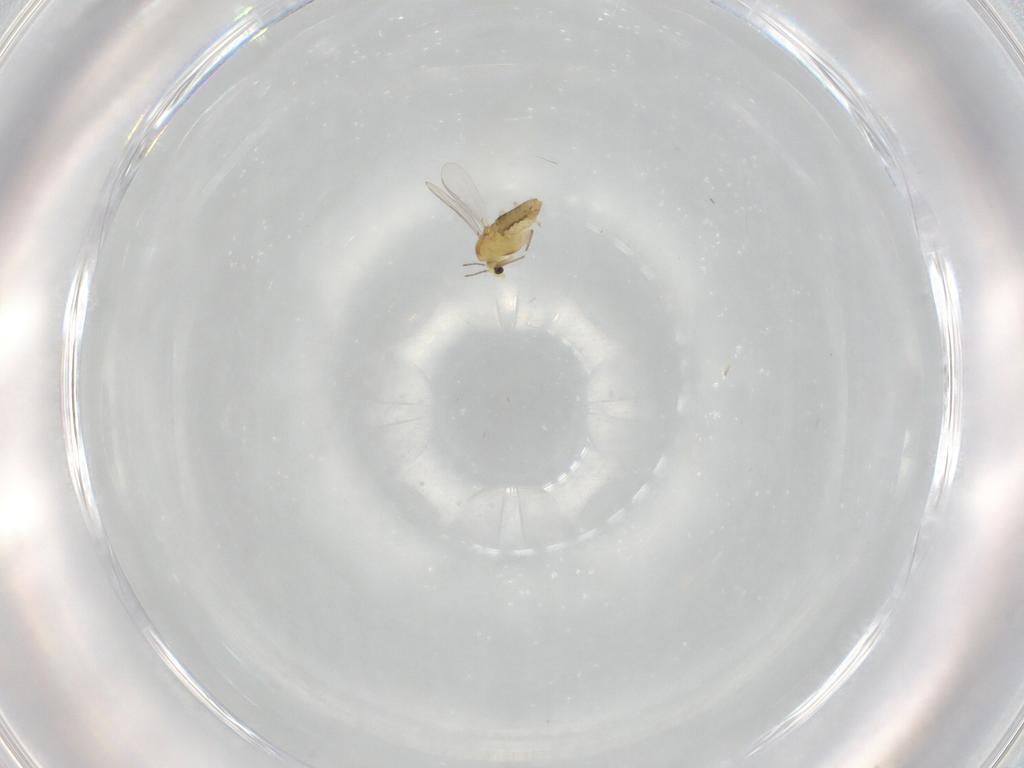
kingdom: Animalia
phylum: Arthropoda
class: Insecta
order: Diptera
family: Chironomidae
